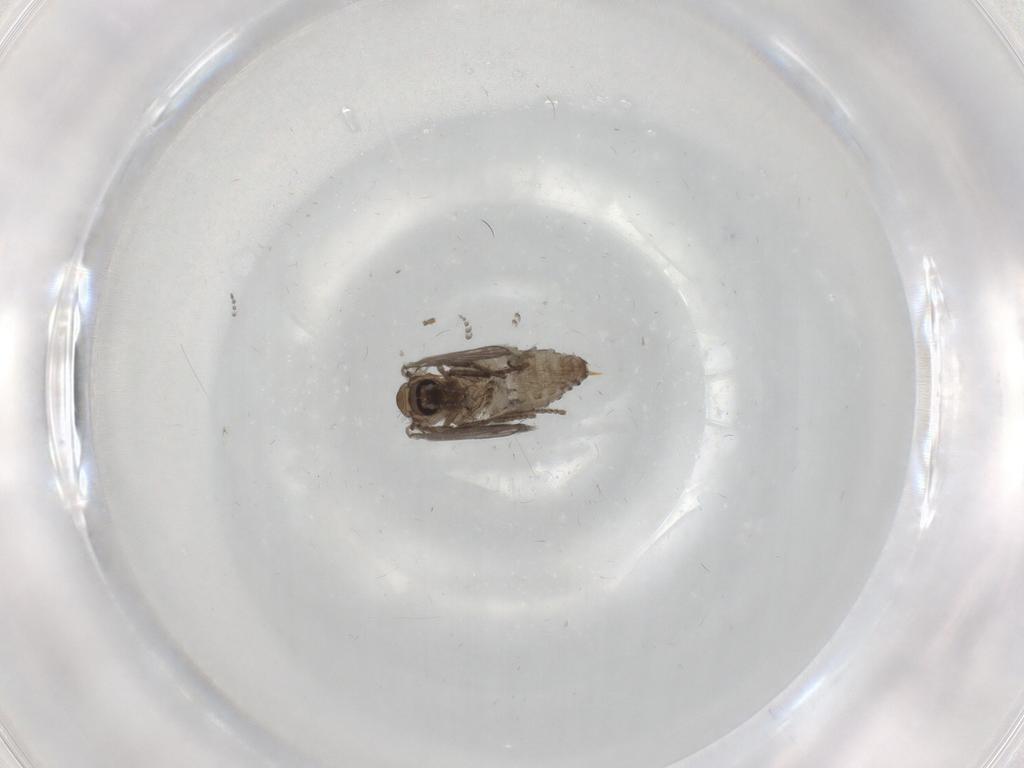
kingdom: Animalia
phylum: Arthropoda
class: Insecta
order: Diptera
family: Psychodidae
